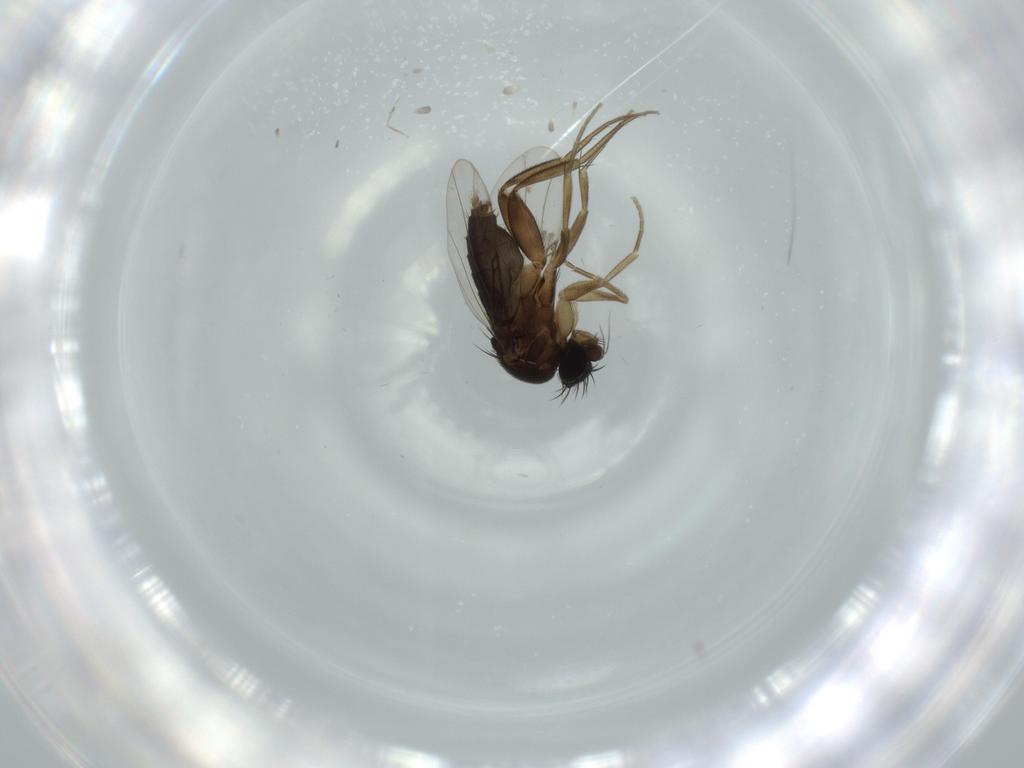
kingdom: Animalia
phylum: Arthropoda
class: Insecta
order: Diptera
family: Phoridae
